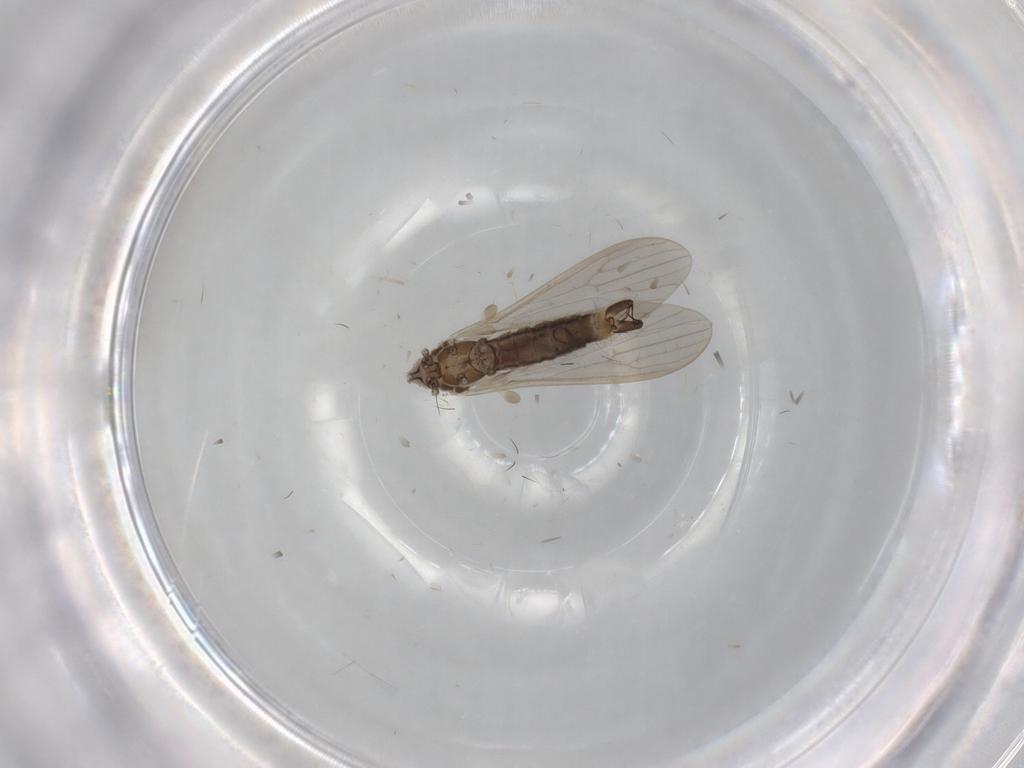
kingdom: Animalia
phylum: Arthropoda
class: Insecta
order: Diptera
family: Limoniidae
